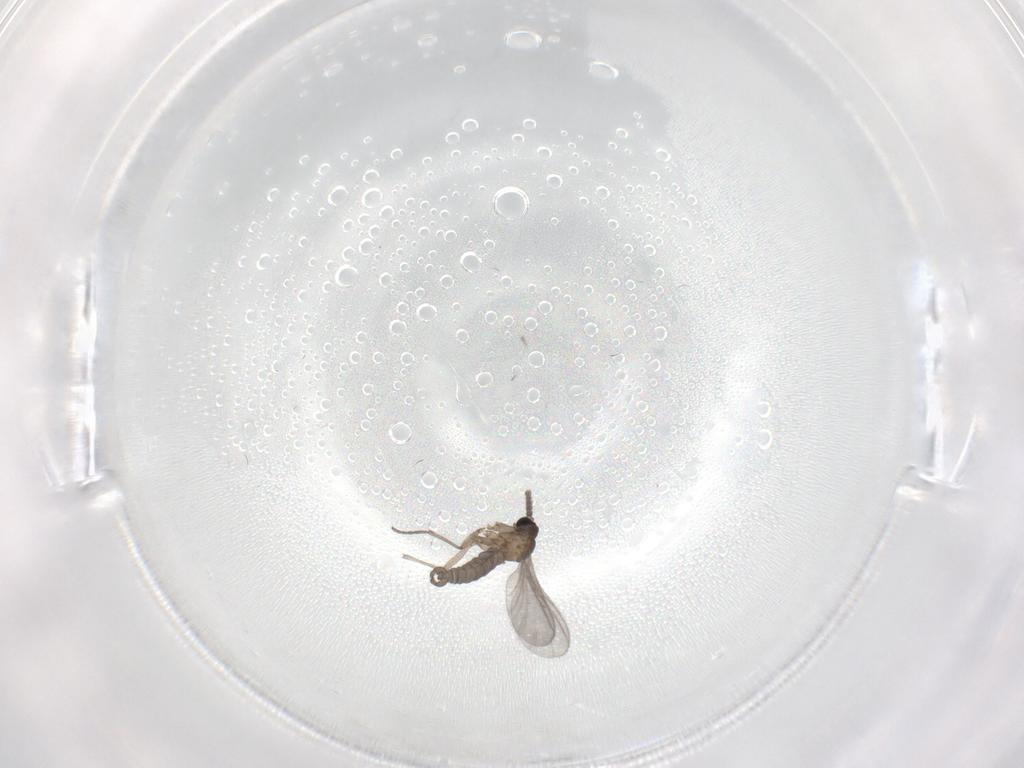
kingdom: Animalia
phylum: Arthropoda
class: Insecta
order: Diptera
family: Sciaridae
